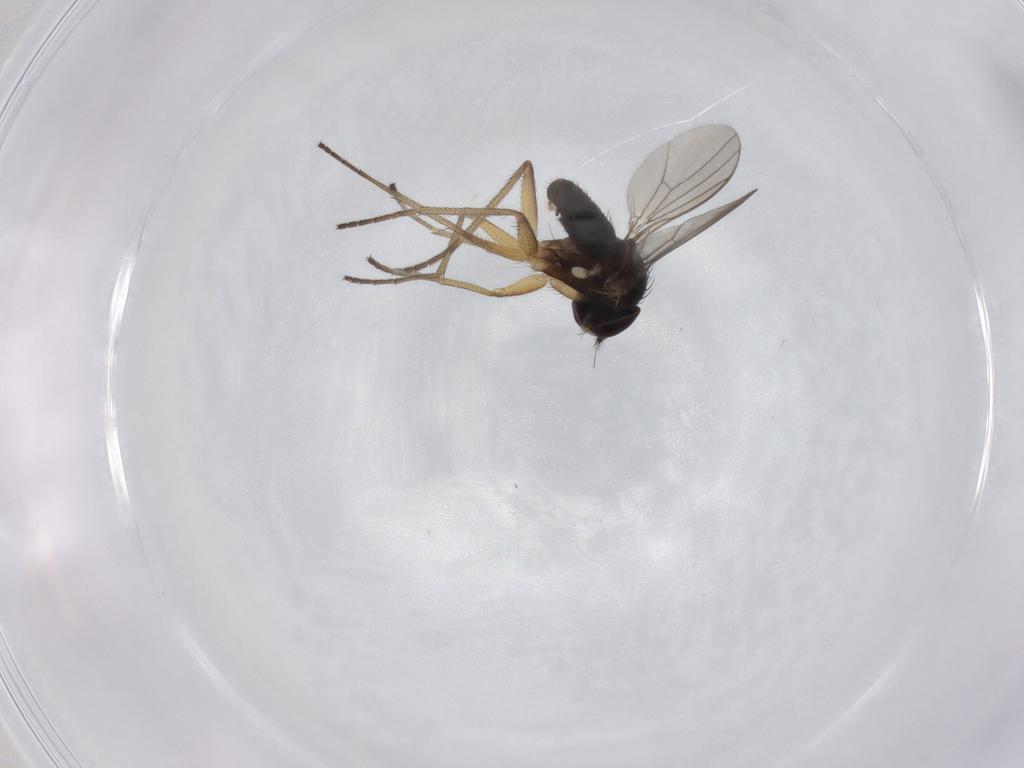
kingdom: Animalia
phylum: Arthropoda
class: Insecta
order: Diptera
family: Dolichopodidae
